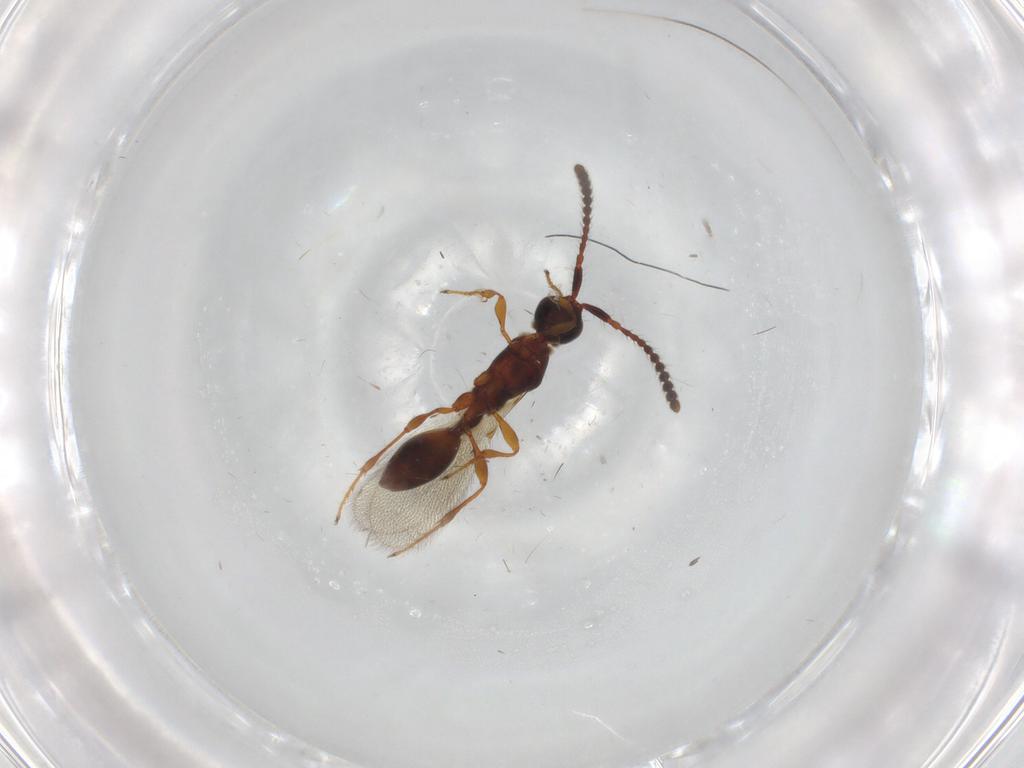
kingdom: Animalia
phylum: Arthropoda
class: Insecta
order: Hymenoptera
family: Diapriidae
